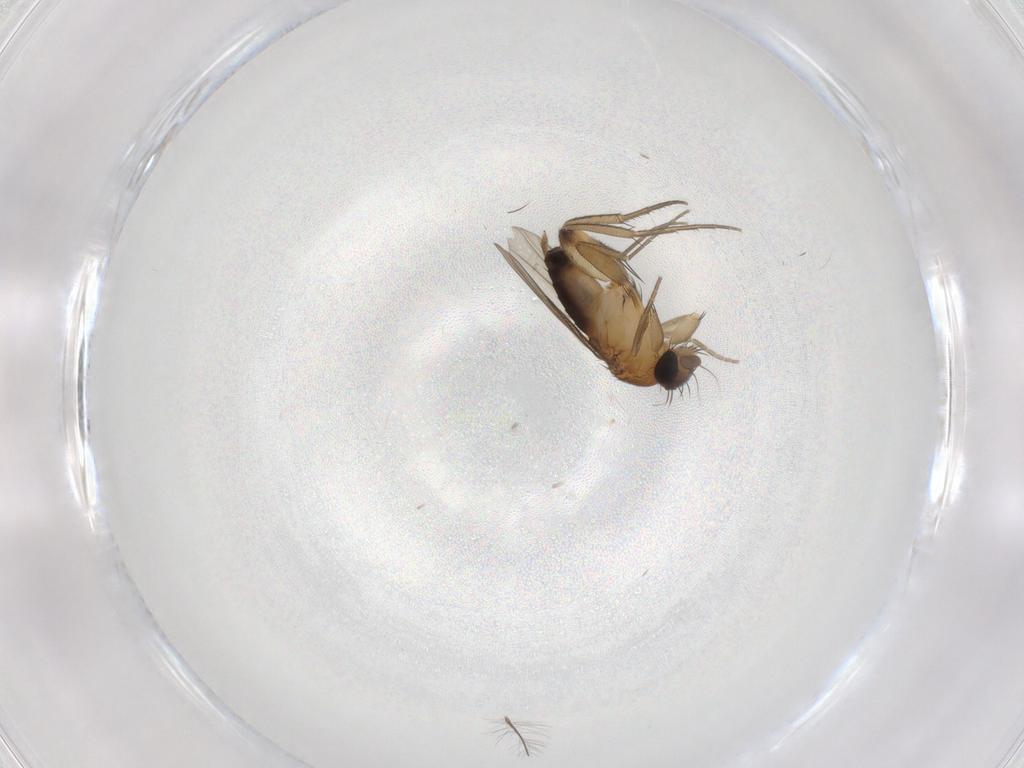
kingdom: Animalia
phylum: Arthropoda
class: Insecta
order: Diptera
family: Phoridae
